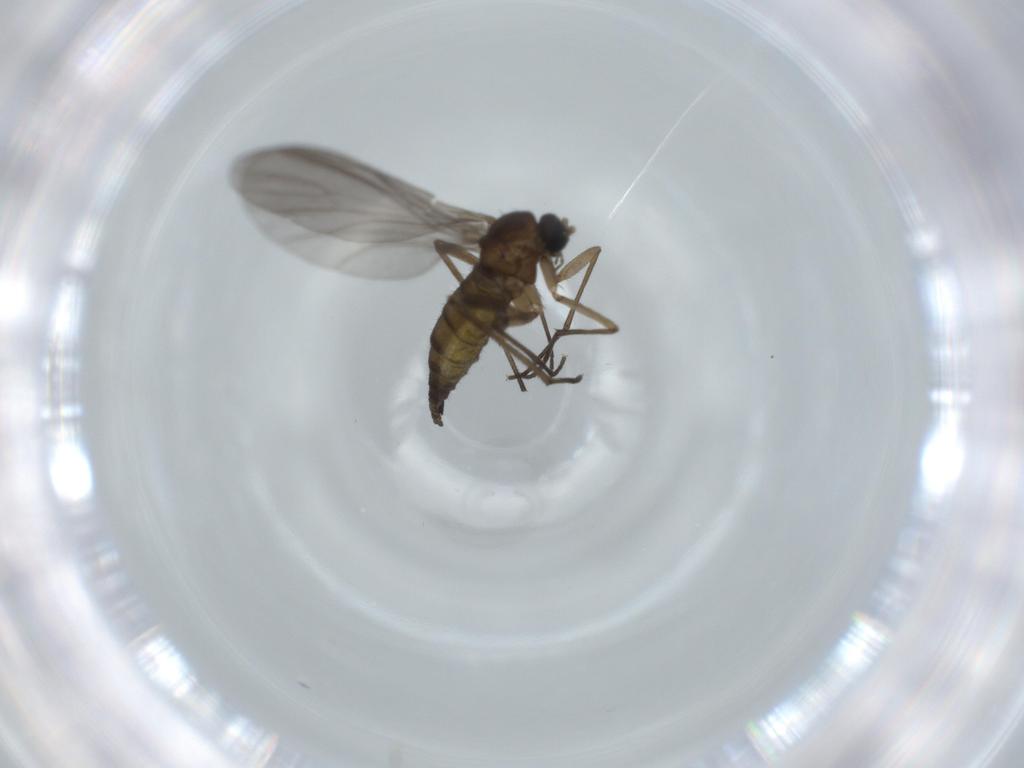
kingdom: Animalia
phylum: Arthropoda
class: Insecta
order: Diptera
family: Sciaridae
